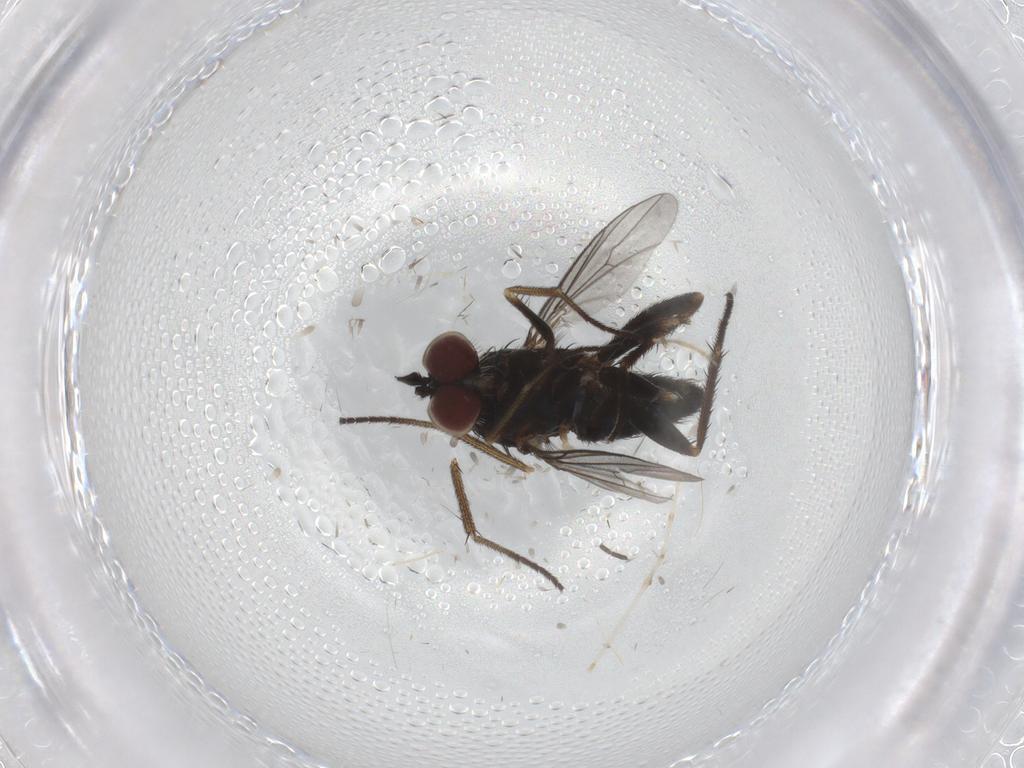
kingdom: Animalia
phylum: Arthropoda
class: Insecta
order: Diptera
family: Dolichopodidae
